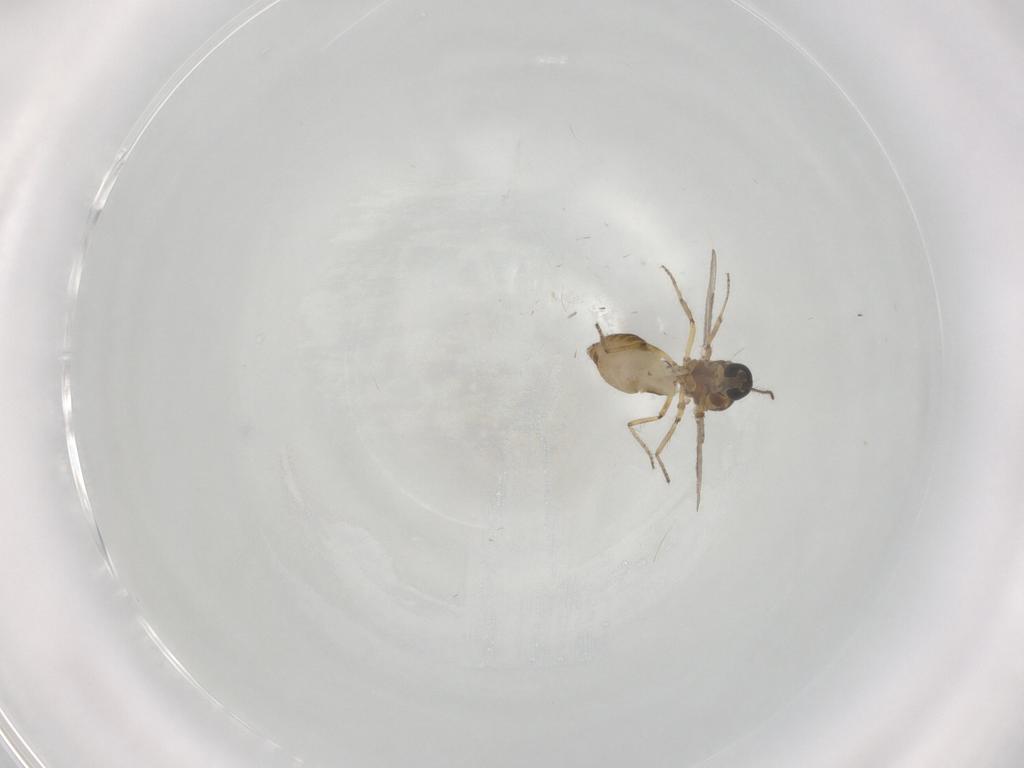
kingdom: Animalia
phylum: Arthropoda
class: Insecta
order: Diptera
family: Ceratopogonidae
